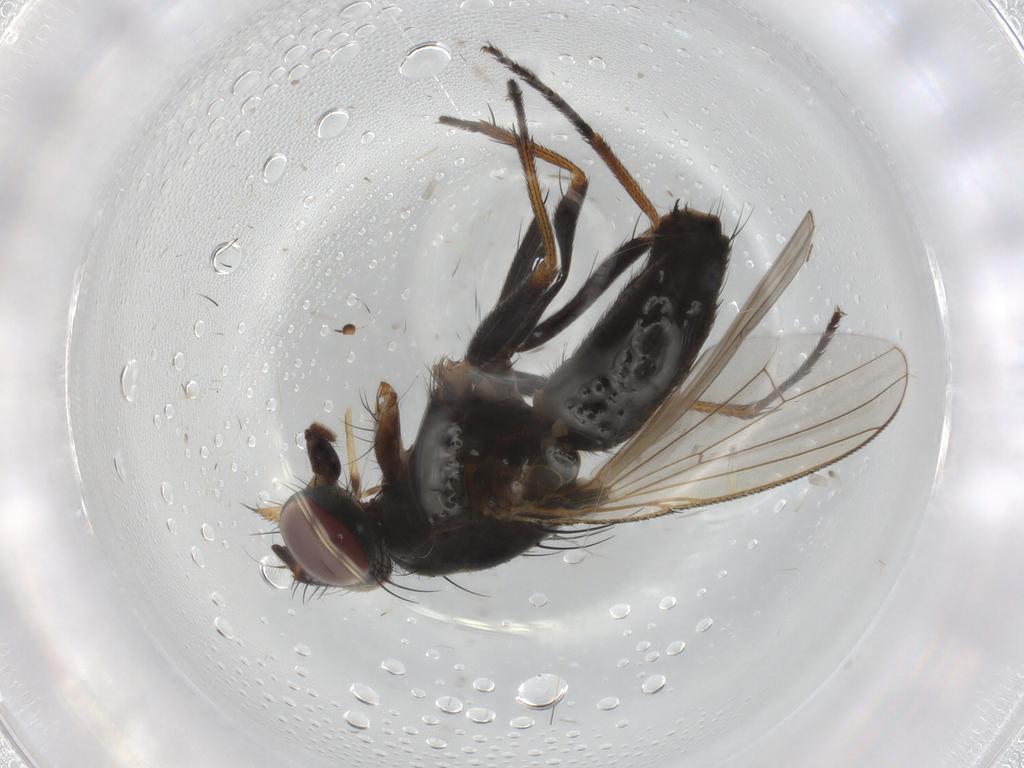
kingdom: Animalia
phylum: Arthropoda
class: Insecta
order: Diptera
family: Muscidae
